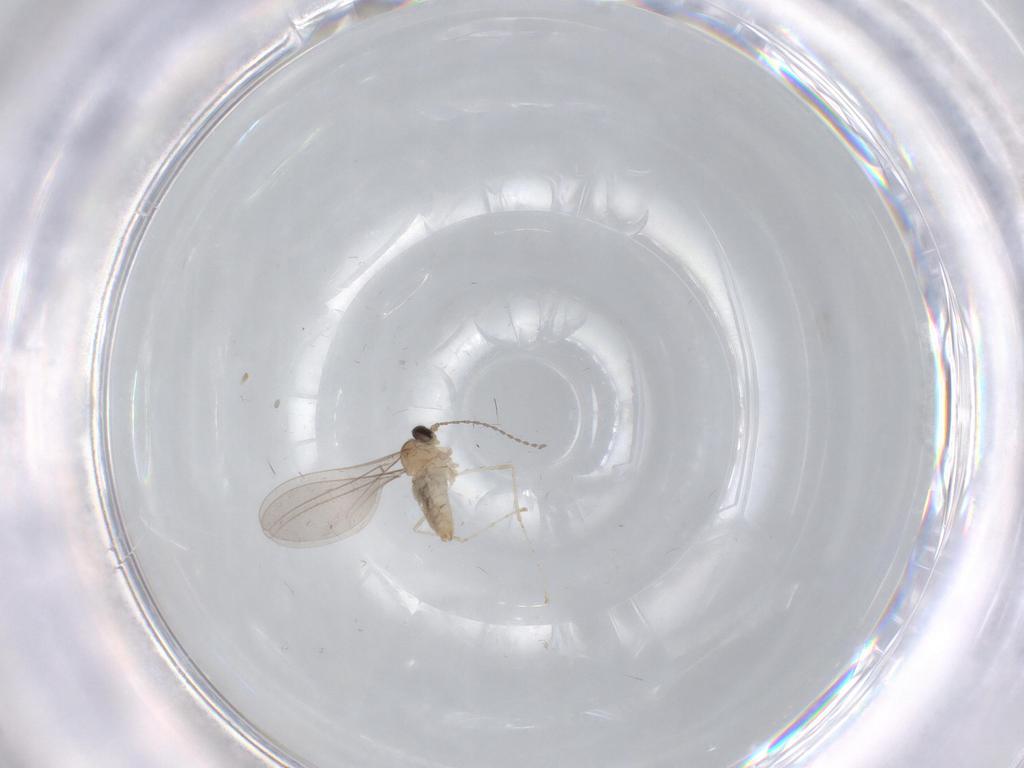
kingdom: Animalia
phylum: Arthropoda
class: Insecta
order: Diptera
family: Cecidomyiidae
